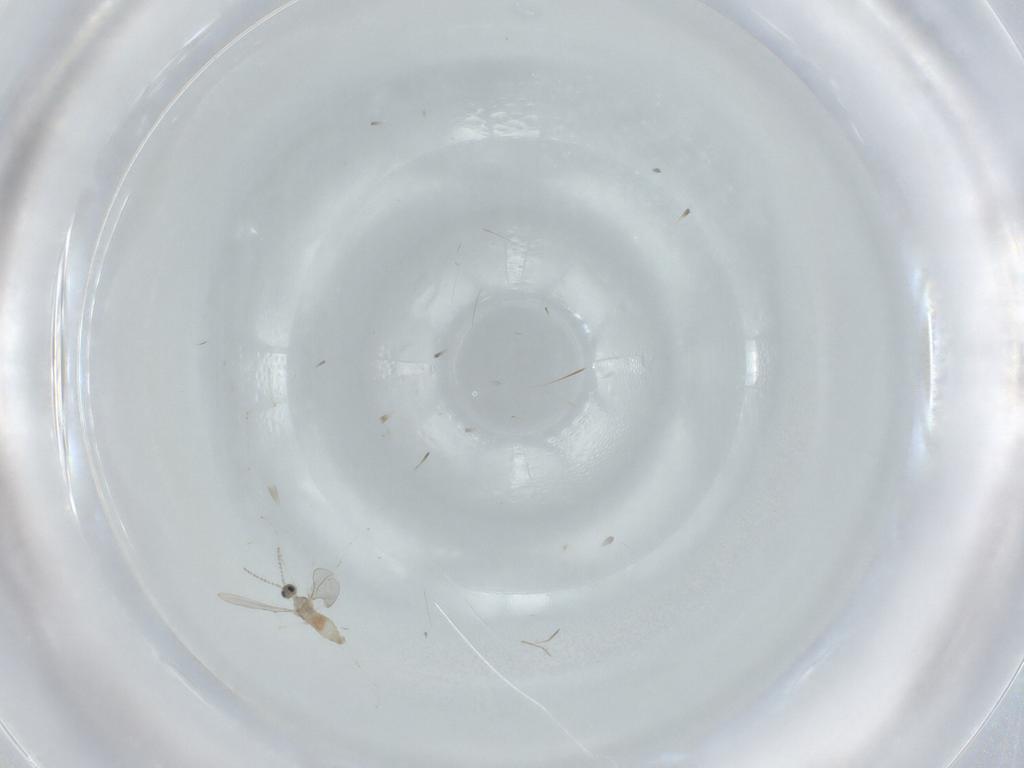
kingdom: Animalia
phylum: Arthropoda
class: Insecta
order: Diptera
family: Cecidomyiidae
